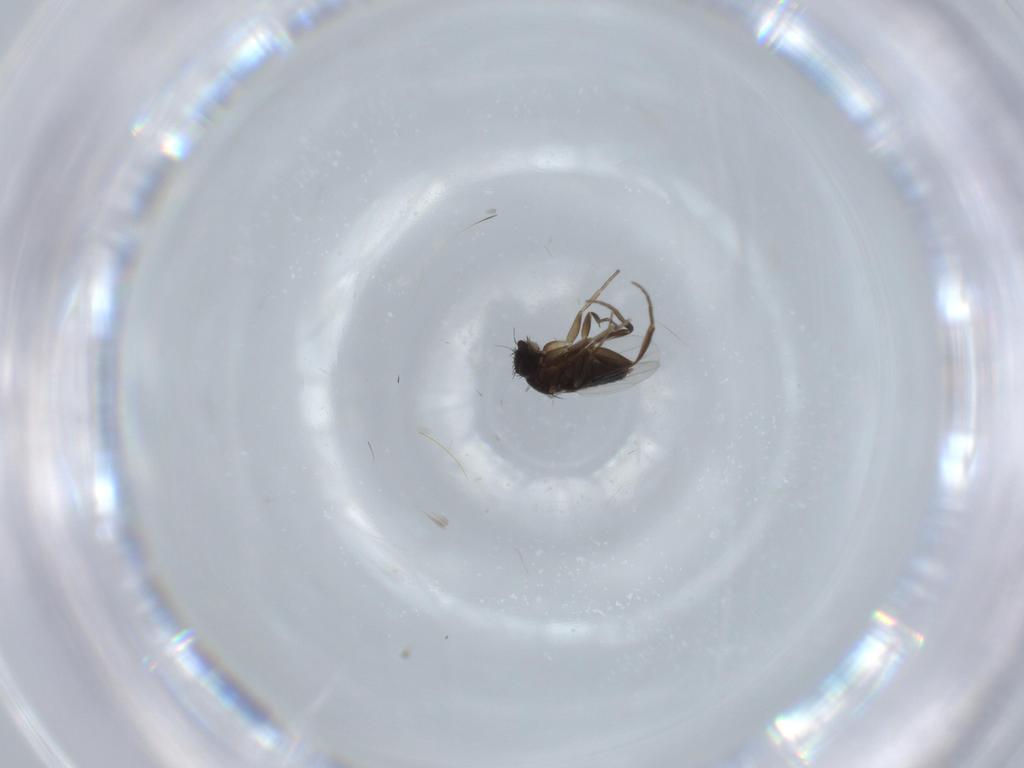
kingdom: Animalia
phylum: Arthropoda
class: Insecta
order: Diptera
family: Phoridae
